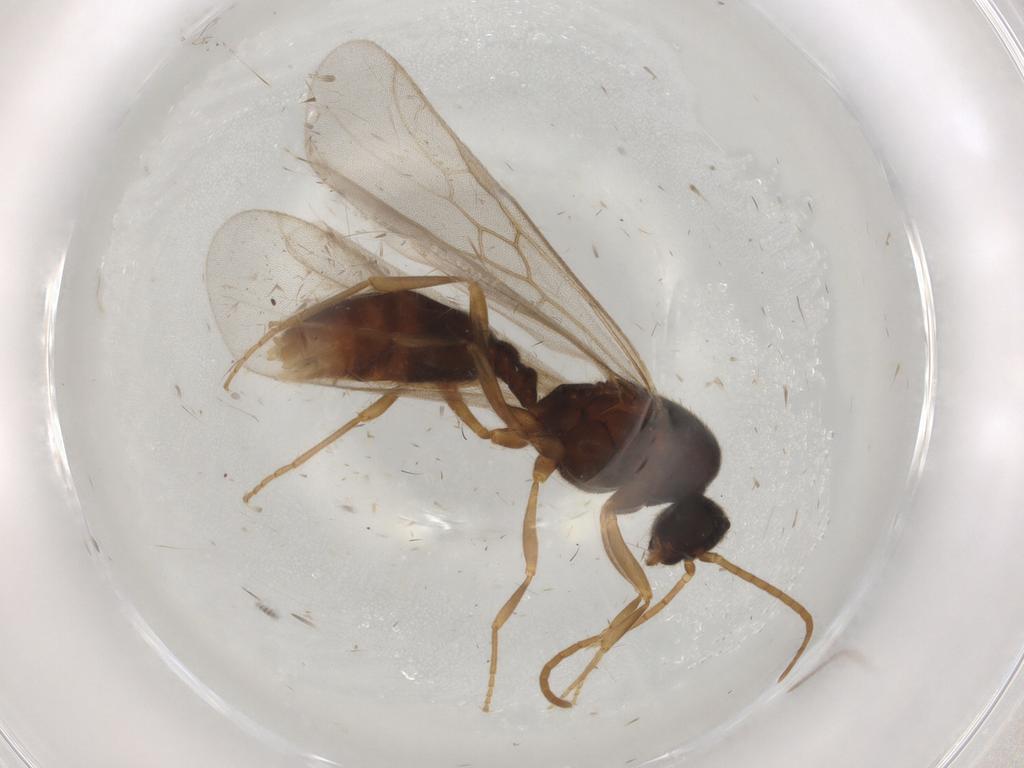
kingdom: Animalia
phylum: Arthropoda
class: Insecta
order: Hymenoptera
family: Formicidae
